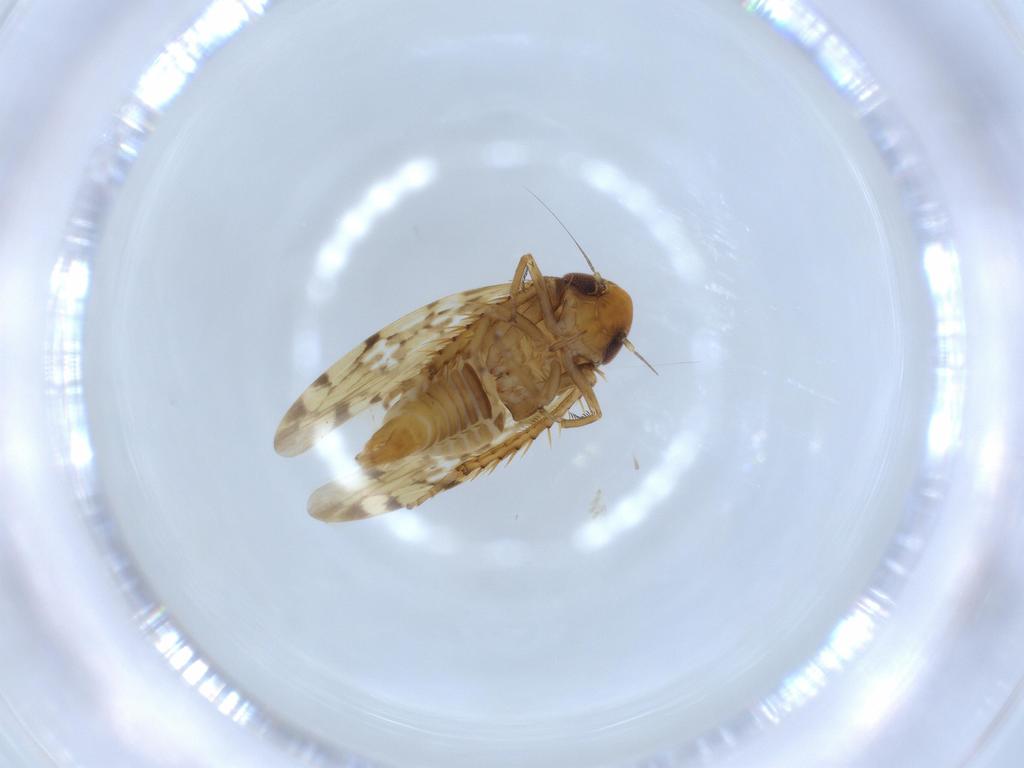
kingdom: Animalia
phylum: Arthropoda
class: Insecta
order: Hemiptera
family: Cicadellidae
